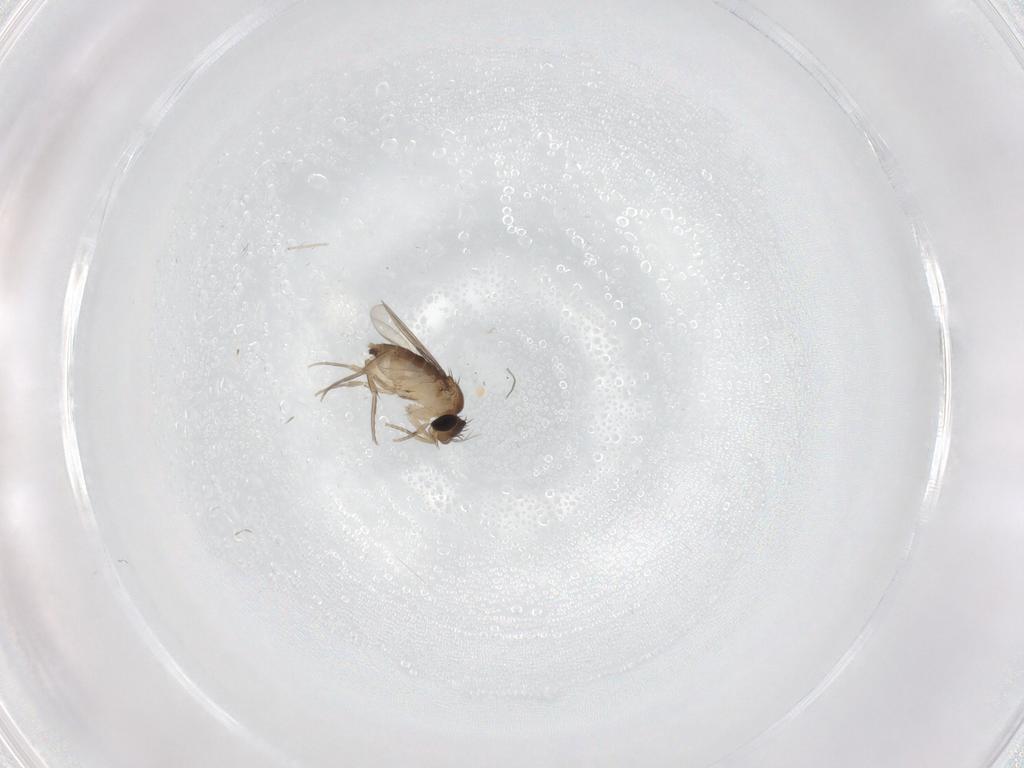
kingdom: Animalia
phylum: Arthropoda
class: Insecta
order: Diptera
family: Phoridae
